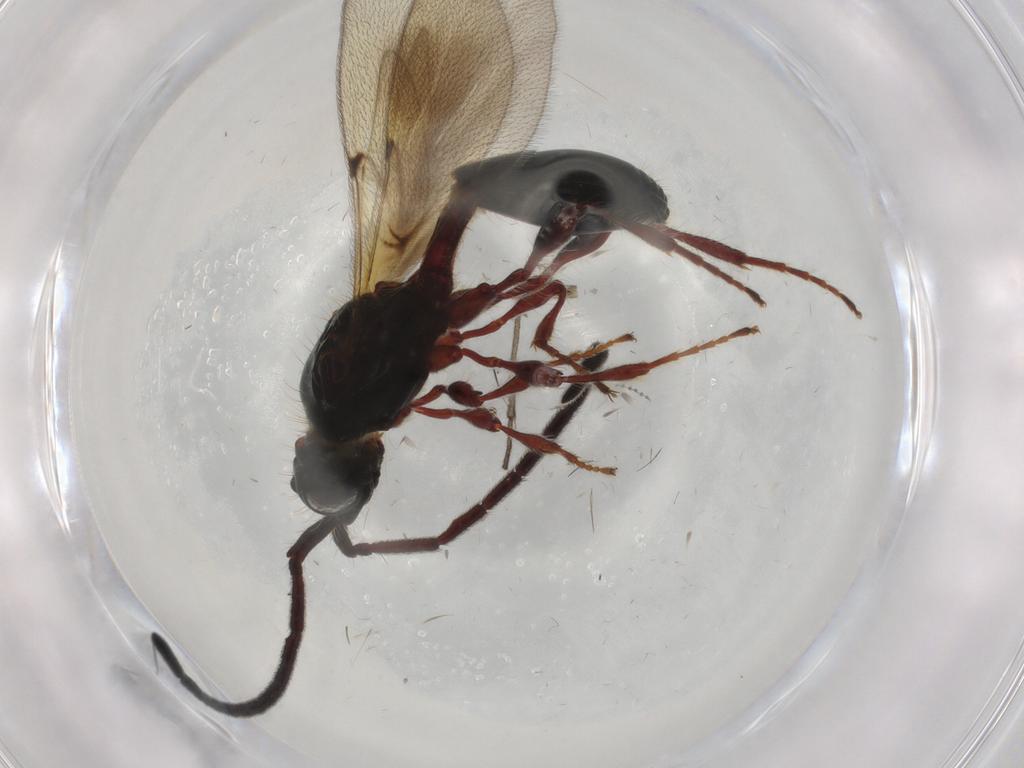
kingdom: Animalia
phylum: Arthropoda
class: Insecta
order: Hymenoptera
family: Diapriidae
